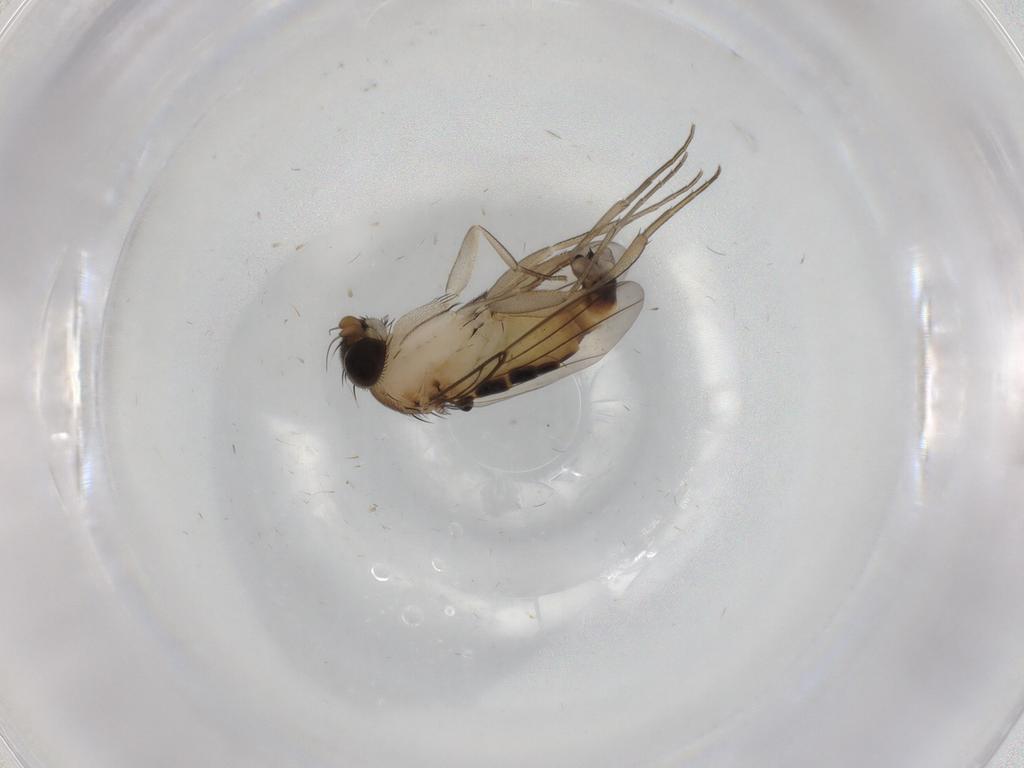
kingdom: Animalia
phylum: Arthropoda
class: Insecta
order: Diptera
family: Phoridae
